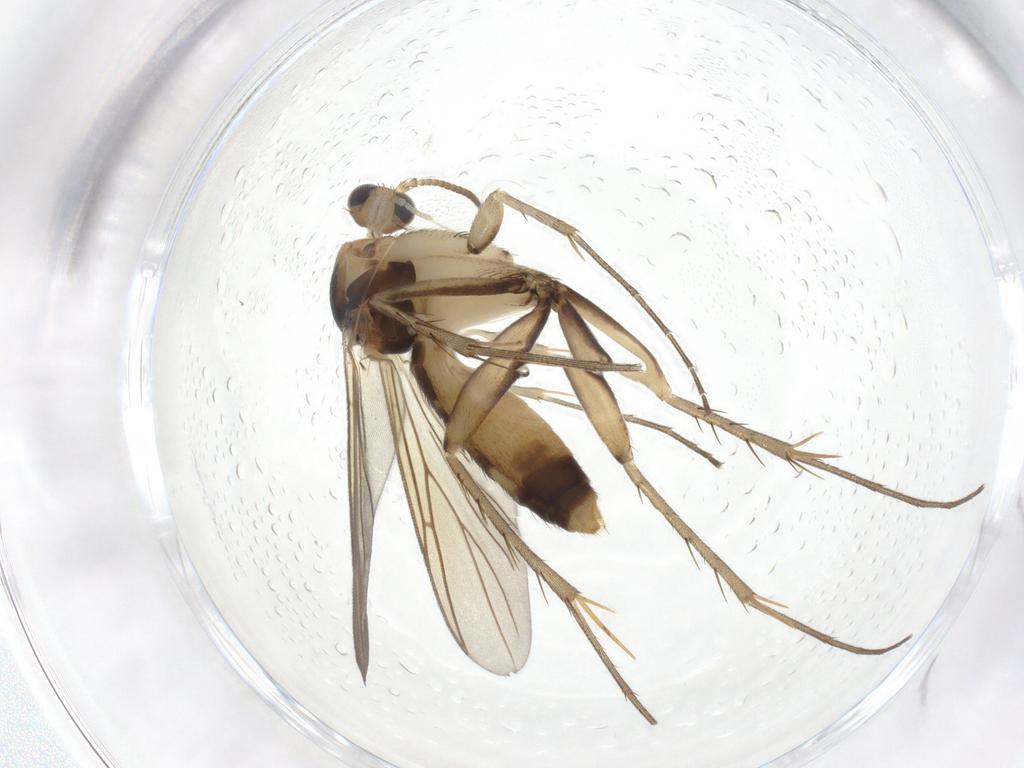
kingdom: Animalia
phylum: Arthropoda
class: Insecta
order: Diptera
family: Mycetophilidae
